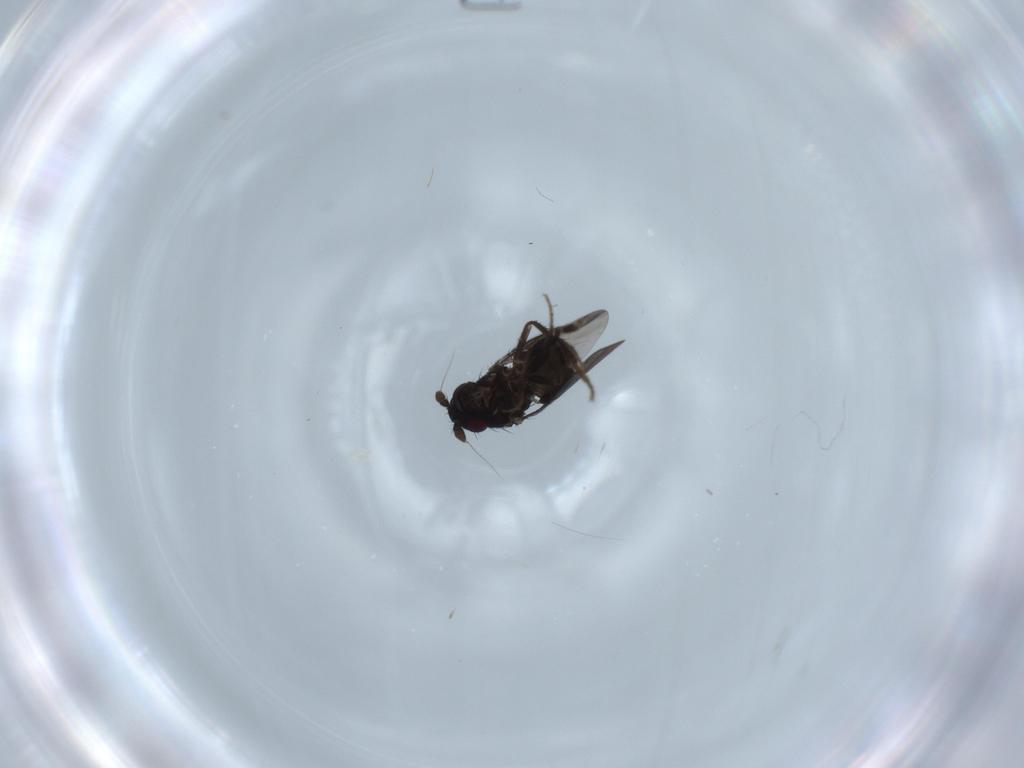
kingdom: Animalia
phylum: Arthropoda
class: Insecta
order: Diptera
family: Sphaeroceridae
